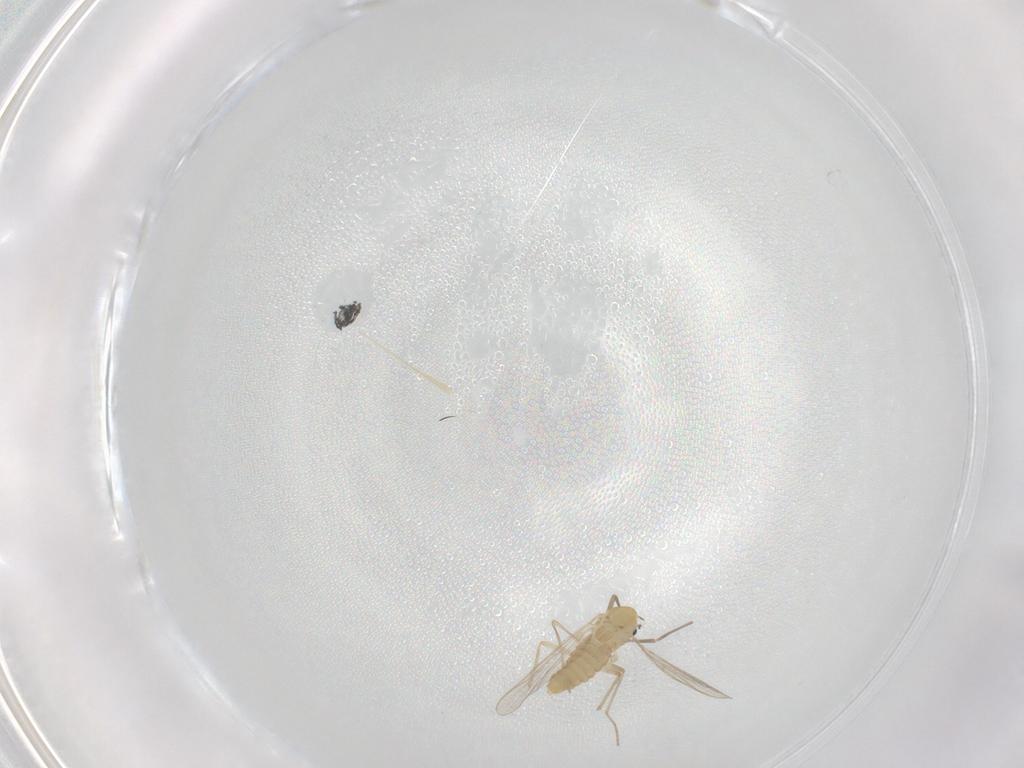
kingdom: Animalia
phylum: Arthropoda
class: Insecta
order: Diptera
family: Chironomidae
